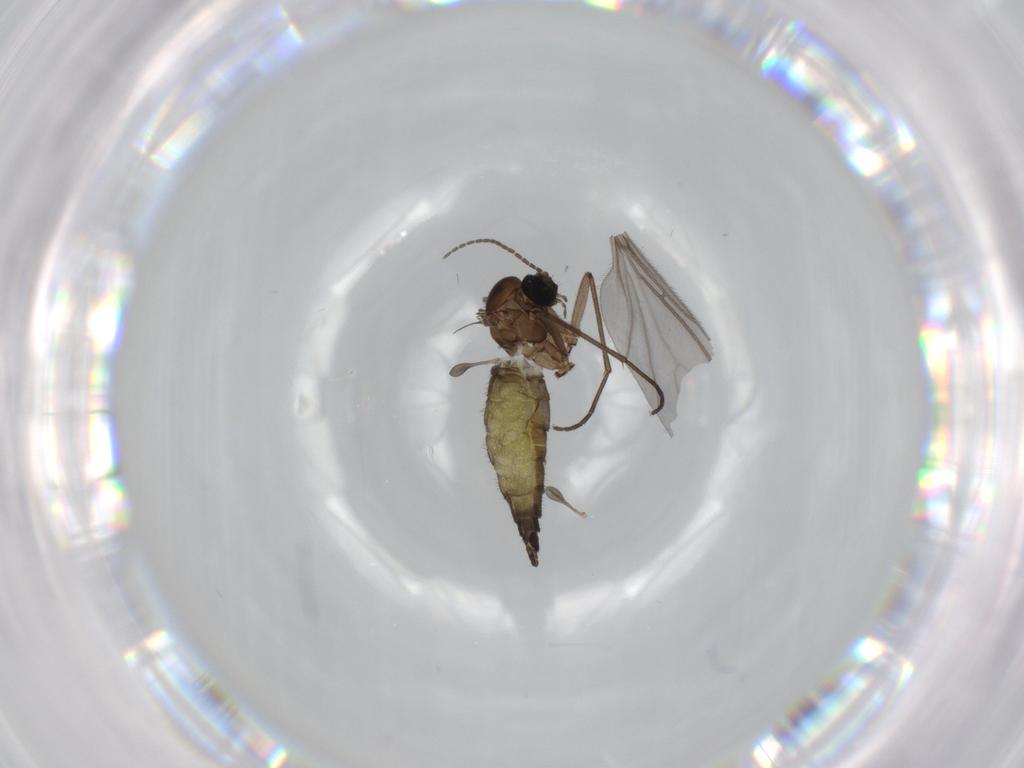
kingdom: Animalia
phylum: Arthropoda
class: Insecta
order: Diptera
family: Sciaridae
